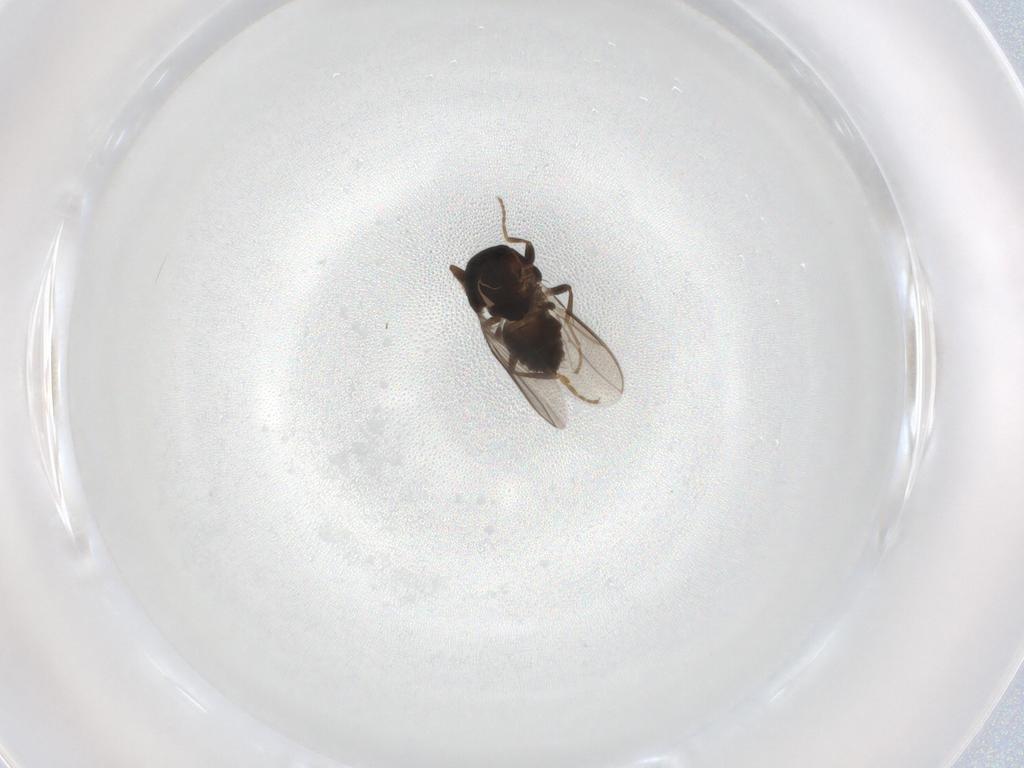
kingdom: Animalia
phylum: Arthropoda
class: Insecta
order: Diptera
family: Sphaeroceridae
